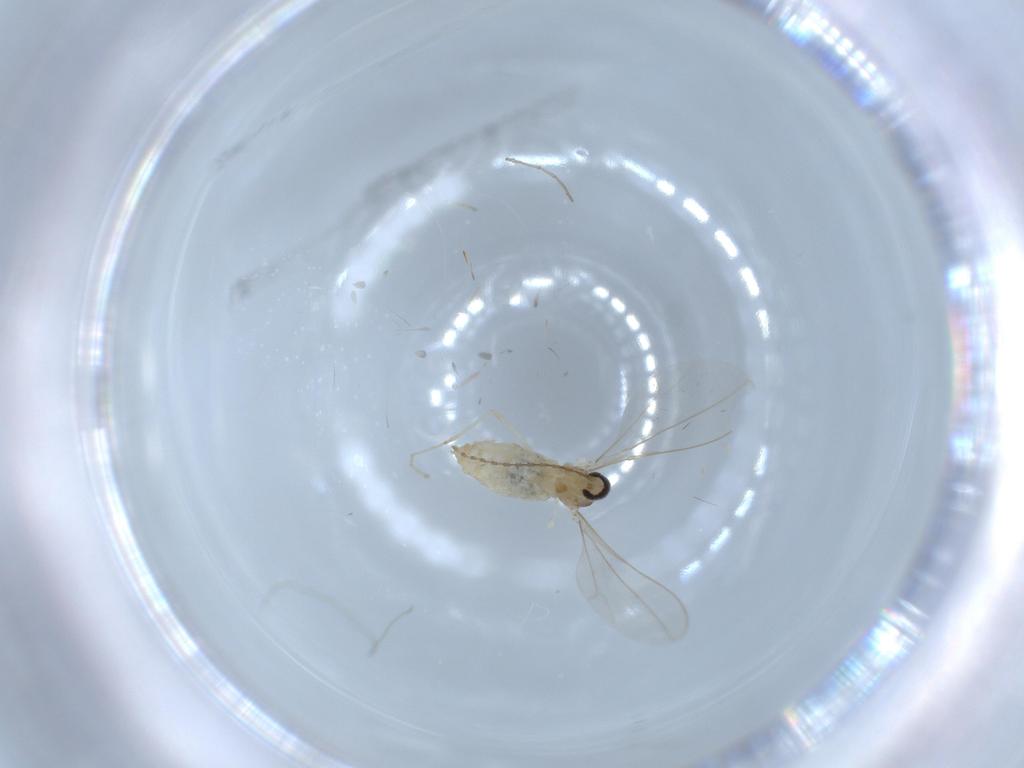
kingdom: Animalia
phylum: Arthropoda
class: Insecta
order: Diptera
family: Cecidomyiidae
